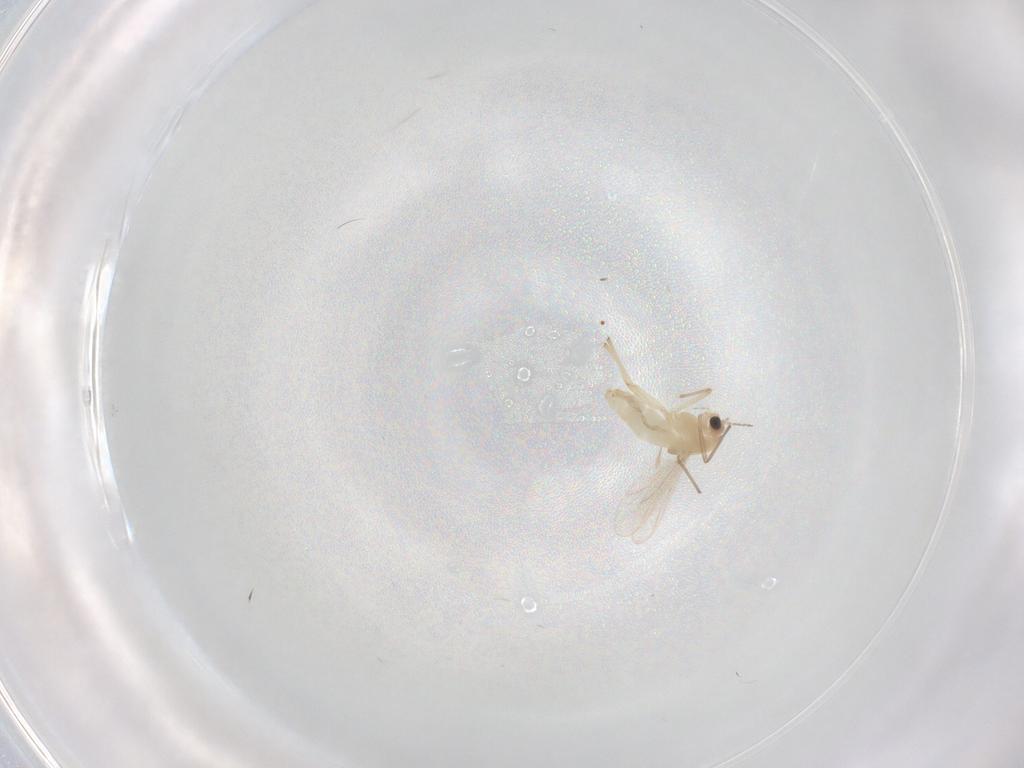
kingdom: Animalia
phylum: Arthropoda
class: Insecta
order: Diptera
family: Chironomidae
